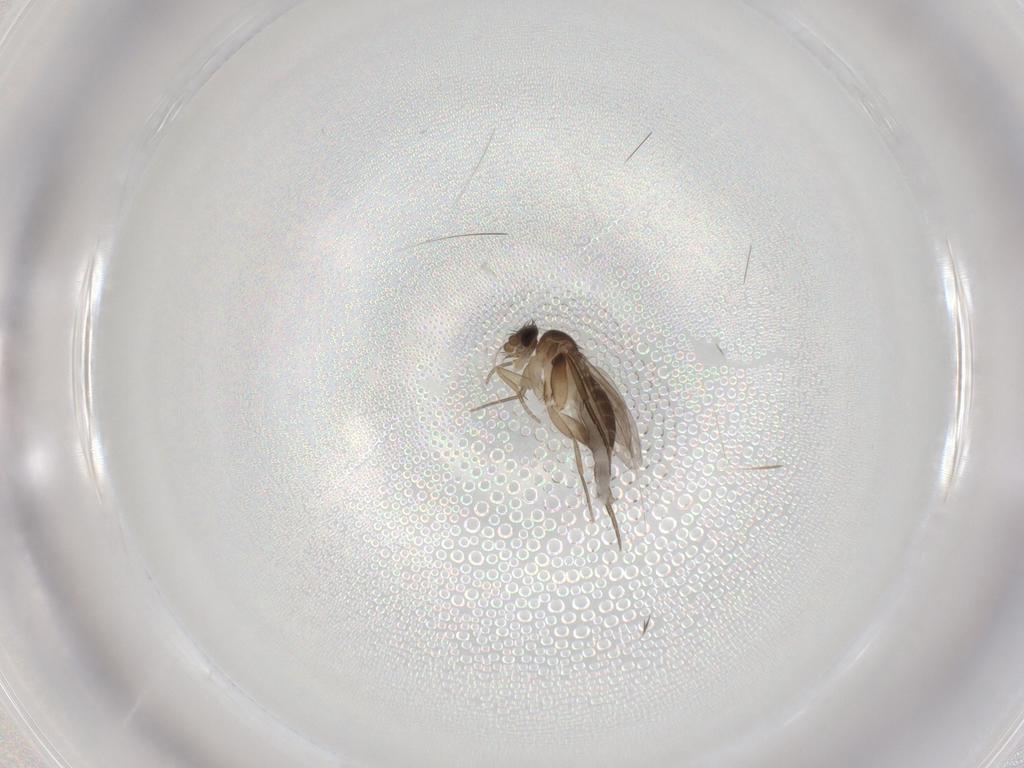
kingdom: Animalia
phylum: Arthropoda
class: Insecta
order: Diptera
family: Phoridae
